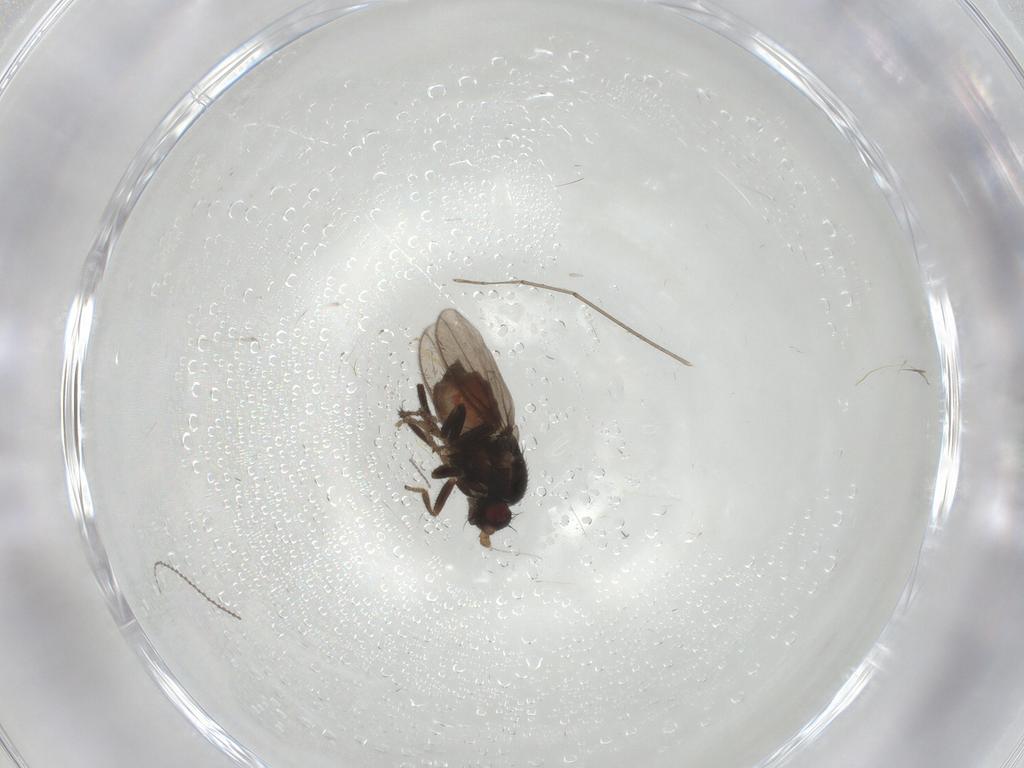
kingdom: Animalia
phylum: Arthropoda
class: Insecta
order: Diptera
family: Sphaeroceridae
